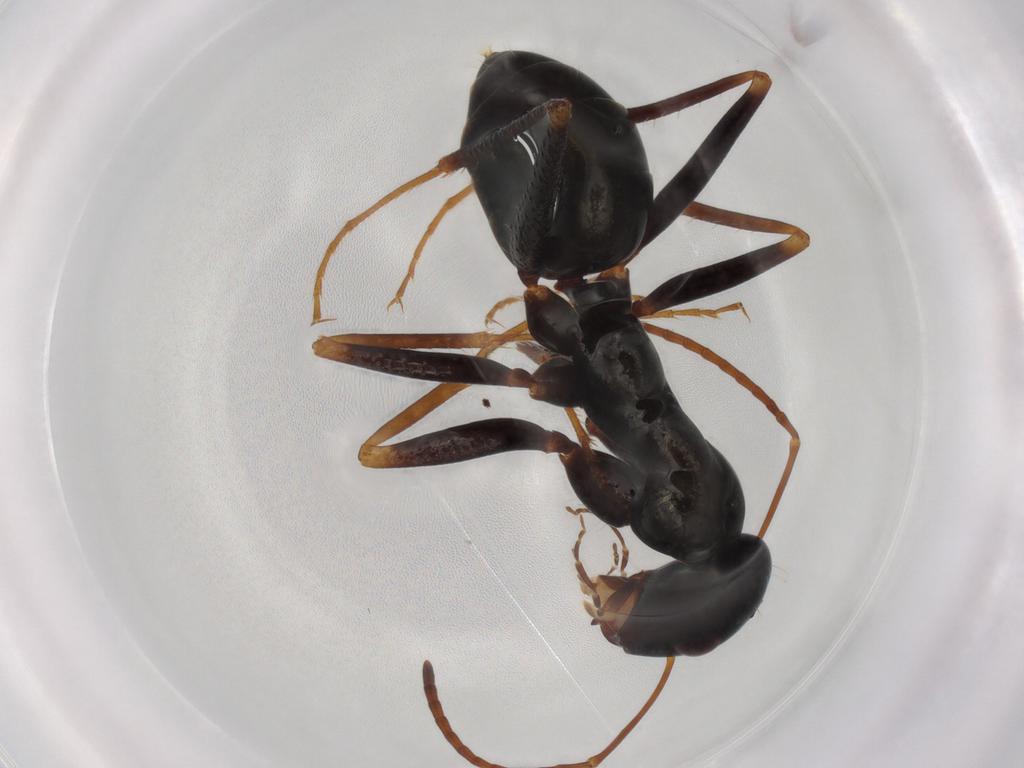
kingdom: Animalia
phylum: Arthropoda
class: Insecta
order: Hymenoptera
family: Formicidae
